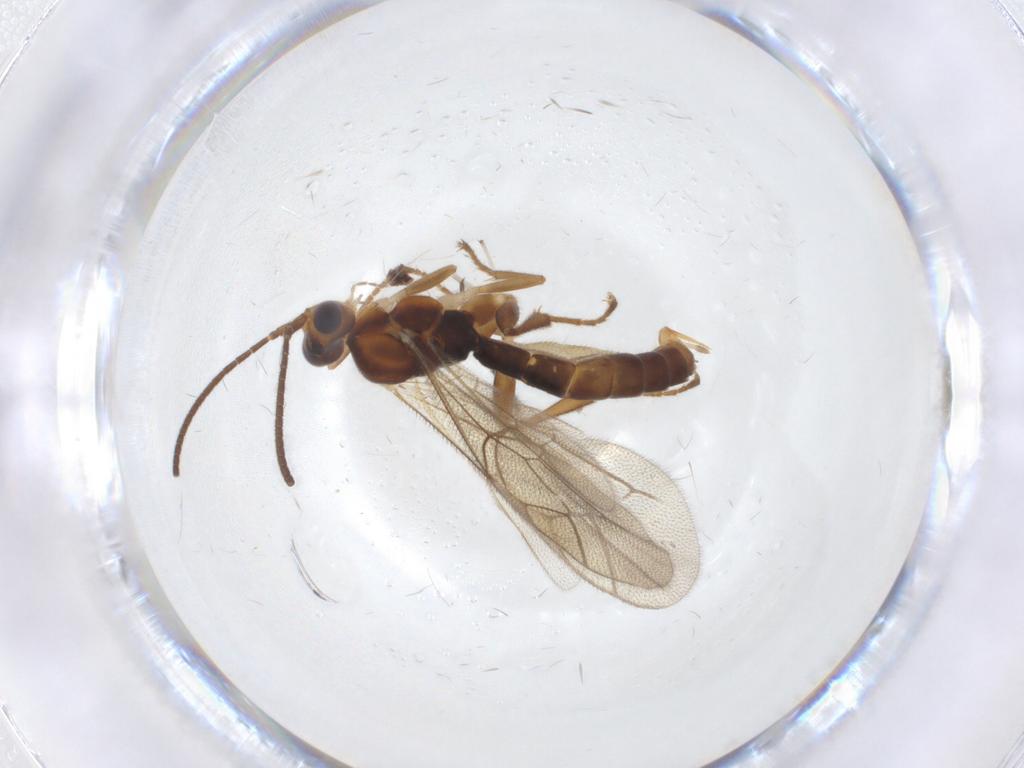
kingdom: Animalia
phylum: Arthropoda
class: Insecta
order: Hymenoptera
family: Ichneumonidae
